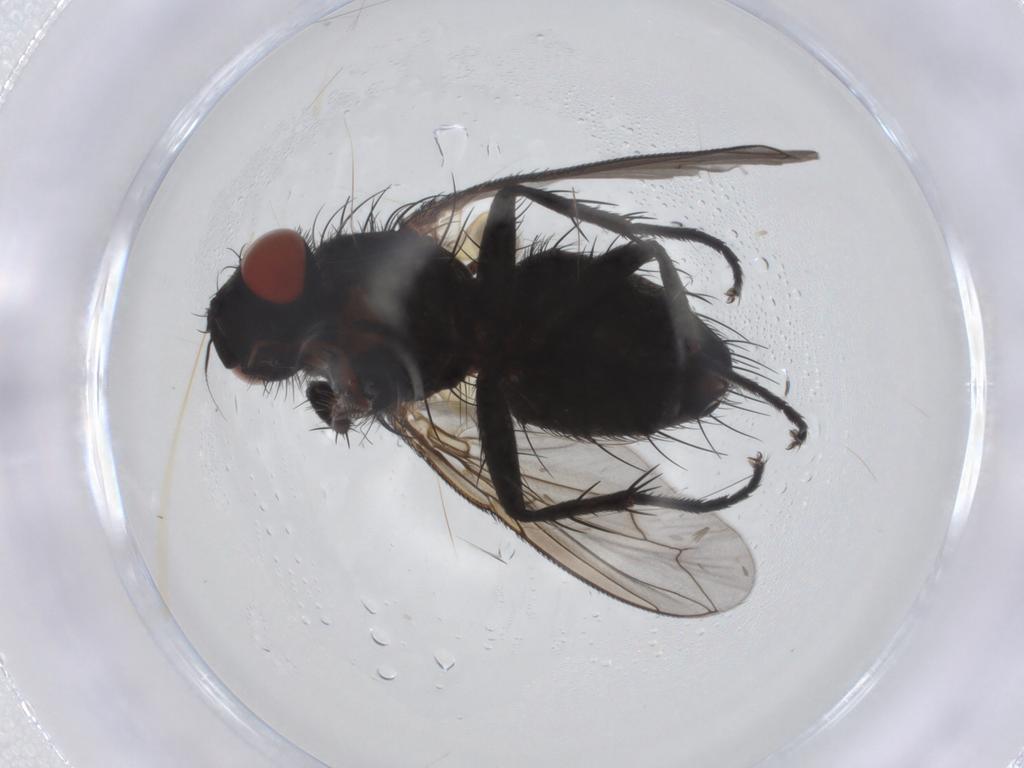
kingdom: Animalia
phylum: Arthropoda
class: Insecta
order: Diptera
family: Sarcophagidae
